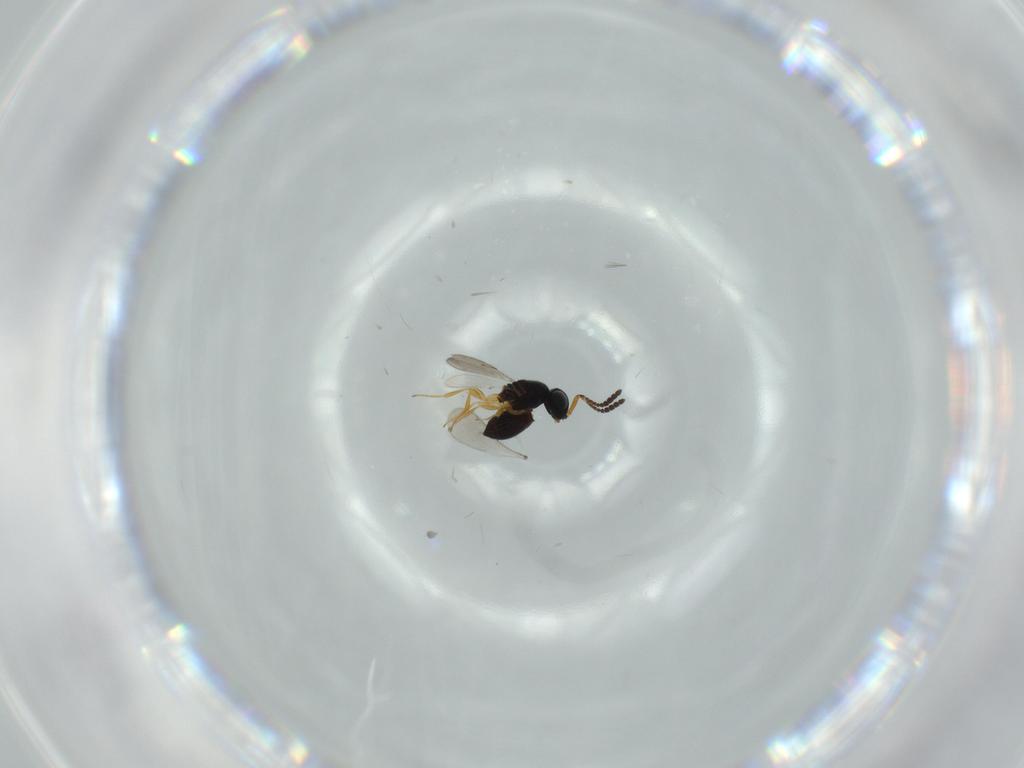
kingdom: Animalia
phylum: Arthropoda
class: Insecta
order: Hymenoptera
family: Scelionidae
